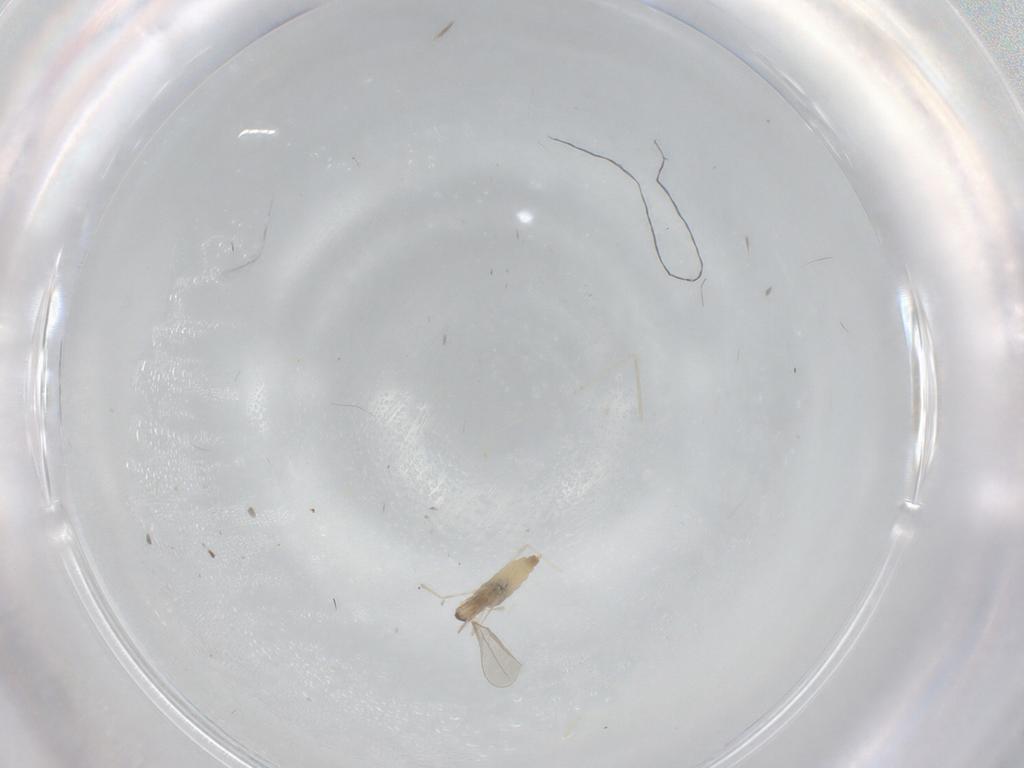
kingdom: Animalia
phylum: Arthropoda
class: Insecta
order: Diptera
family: Cecidomyiidae
